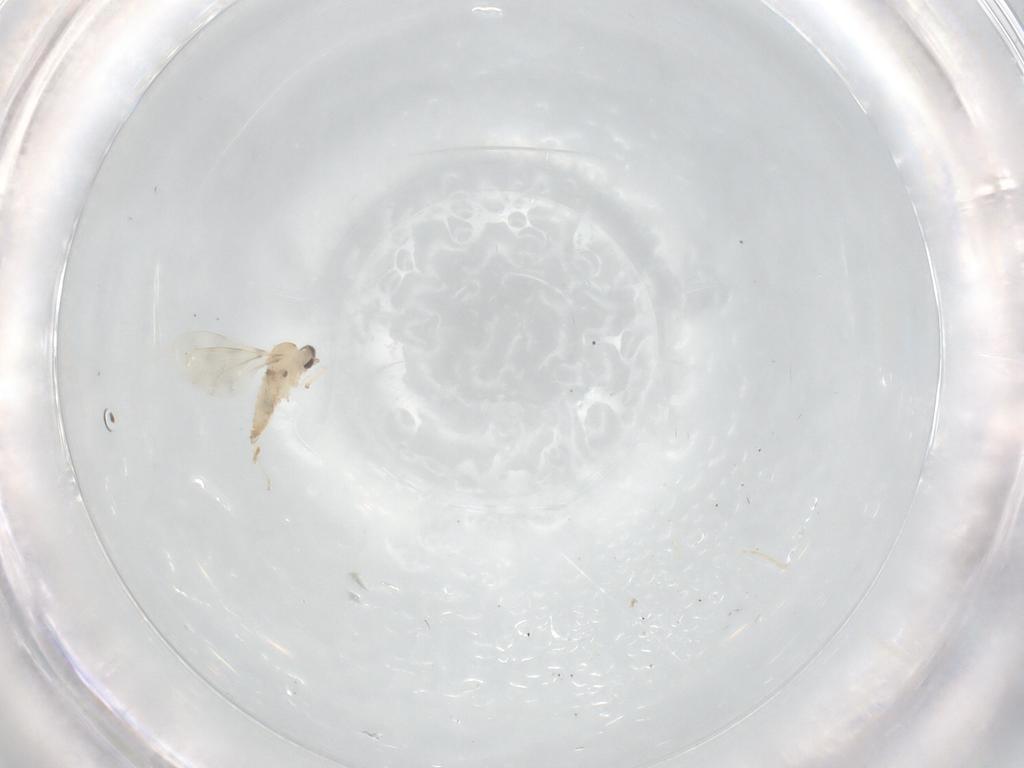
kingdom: Animalia
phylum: Arthropoda
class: Insecta
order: Diptera
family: Cecidomyiidae
